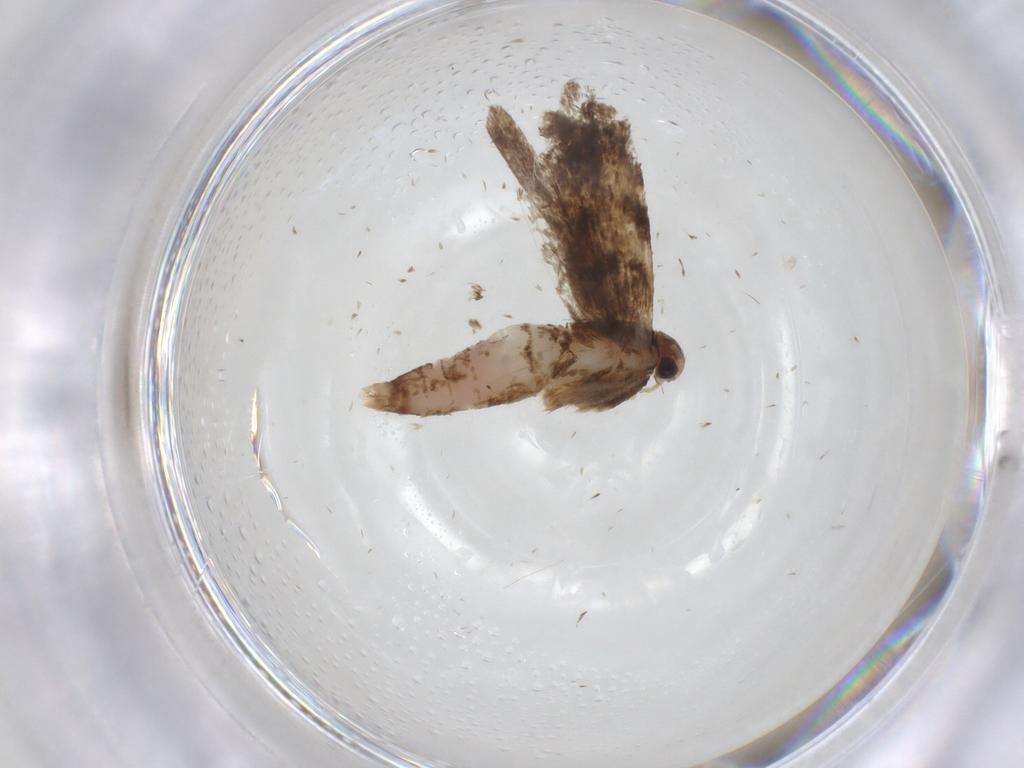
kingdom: Animalia
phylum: Arthropoda
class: Insecta
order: Lepidoptera
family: Gelechiidae
